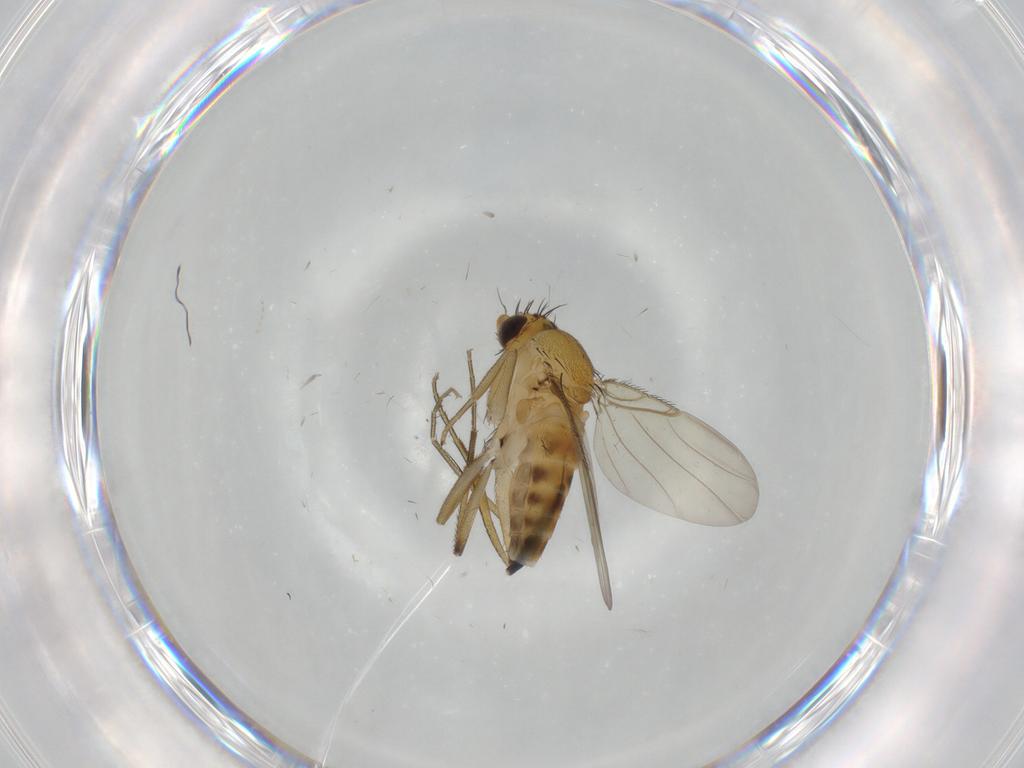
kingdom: Animalia
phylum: Arthropoda
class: Insecta
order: Diptera
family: Phoridae
